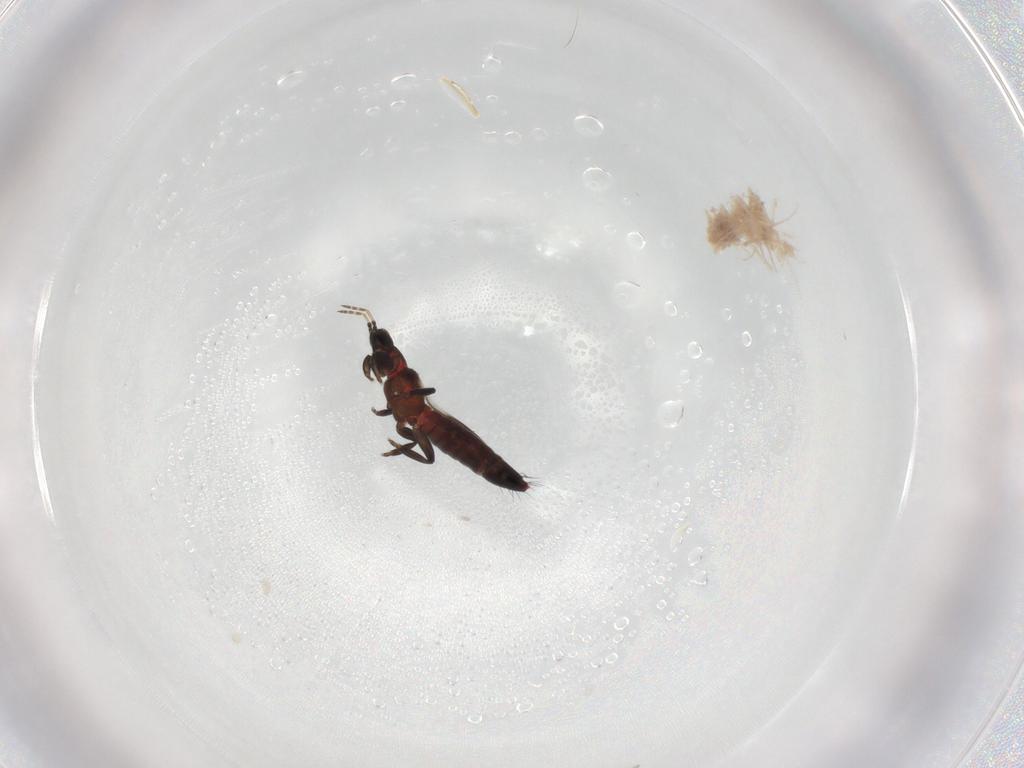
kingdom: Animalia
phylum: Arthropoda
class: Insecta
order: Thysanoptera
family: Aeolothripidae
